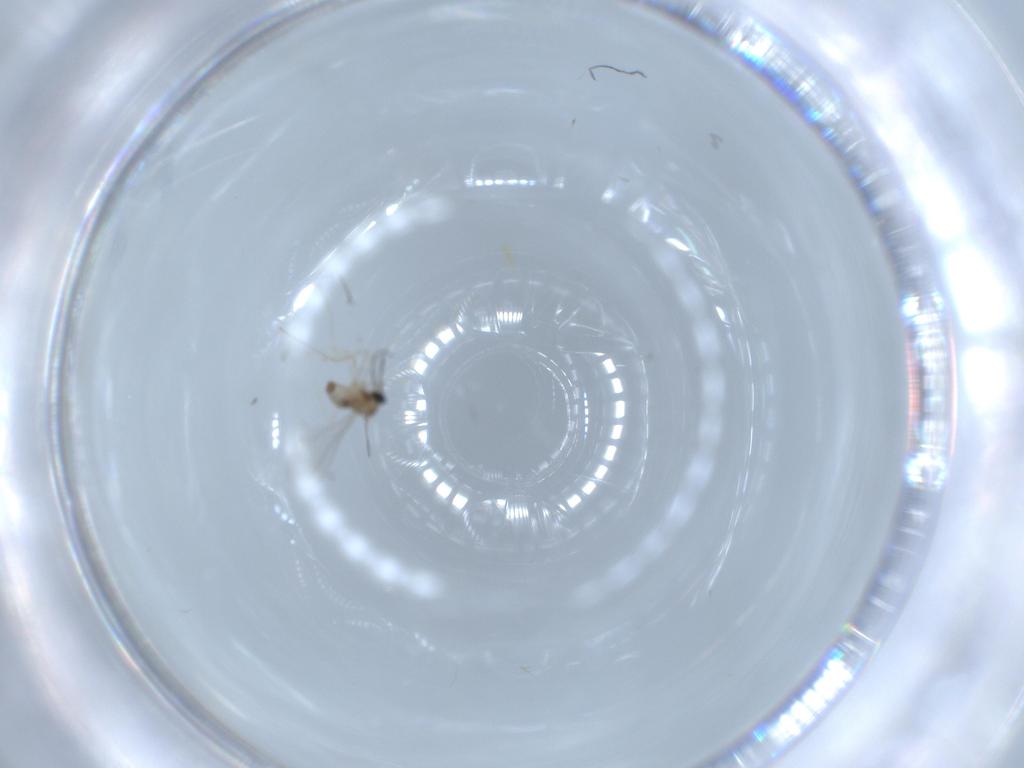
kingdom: Animalia
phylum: Arthropoda
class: Insecta
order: Diptera
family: Cecidomyiidae
